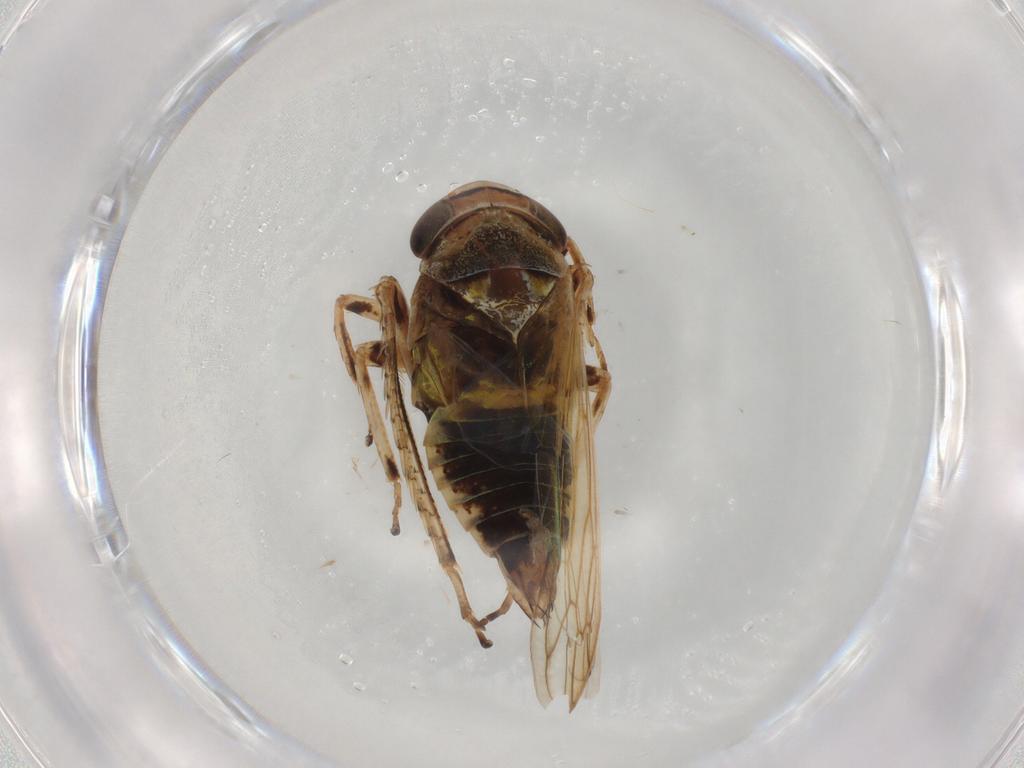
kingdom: Animalia
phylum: Arthropoda
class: Insecta
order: Hemiptera
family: Cicadellidae
